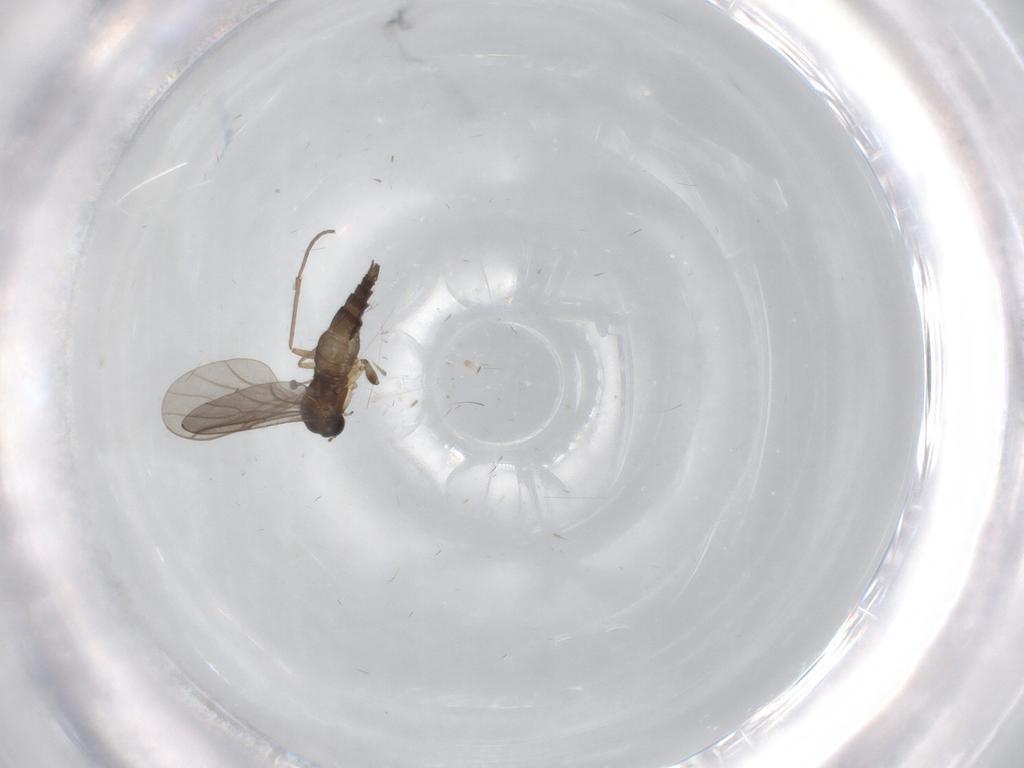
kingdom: Animalia
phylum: Arthropoda
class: Insecta
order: Diptera
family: Sciaridae
